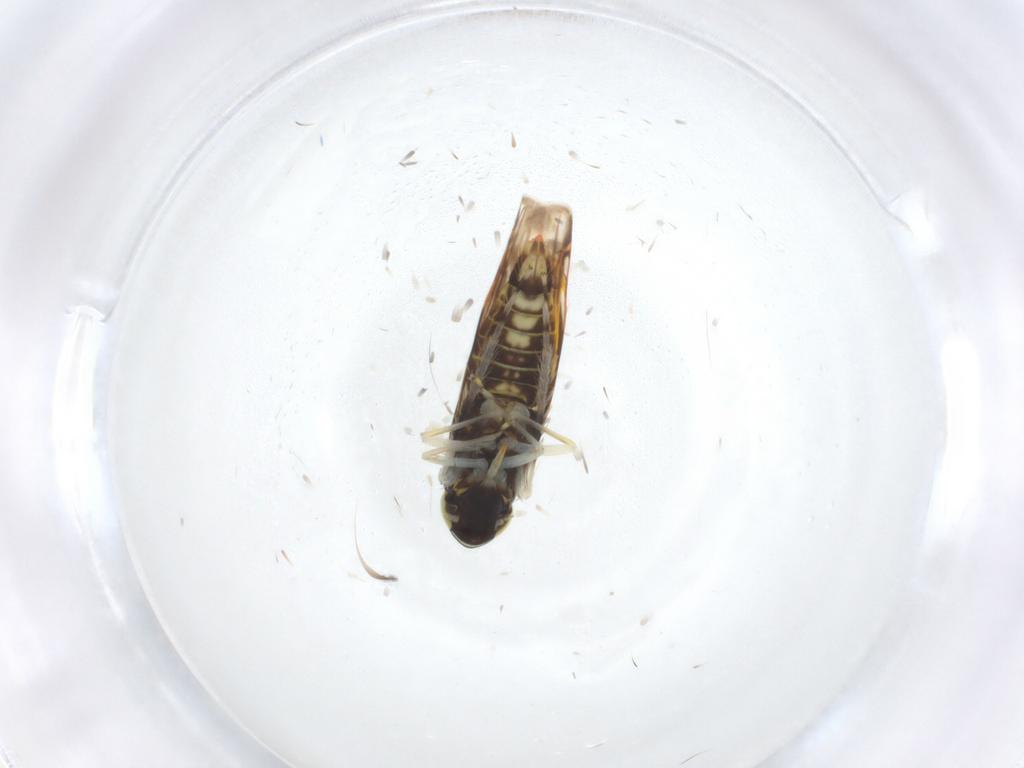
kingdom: Animalia
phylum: Arthropoda
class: Insecta
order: Hemiptera
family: Cicadellidae
